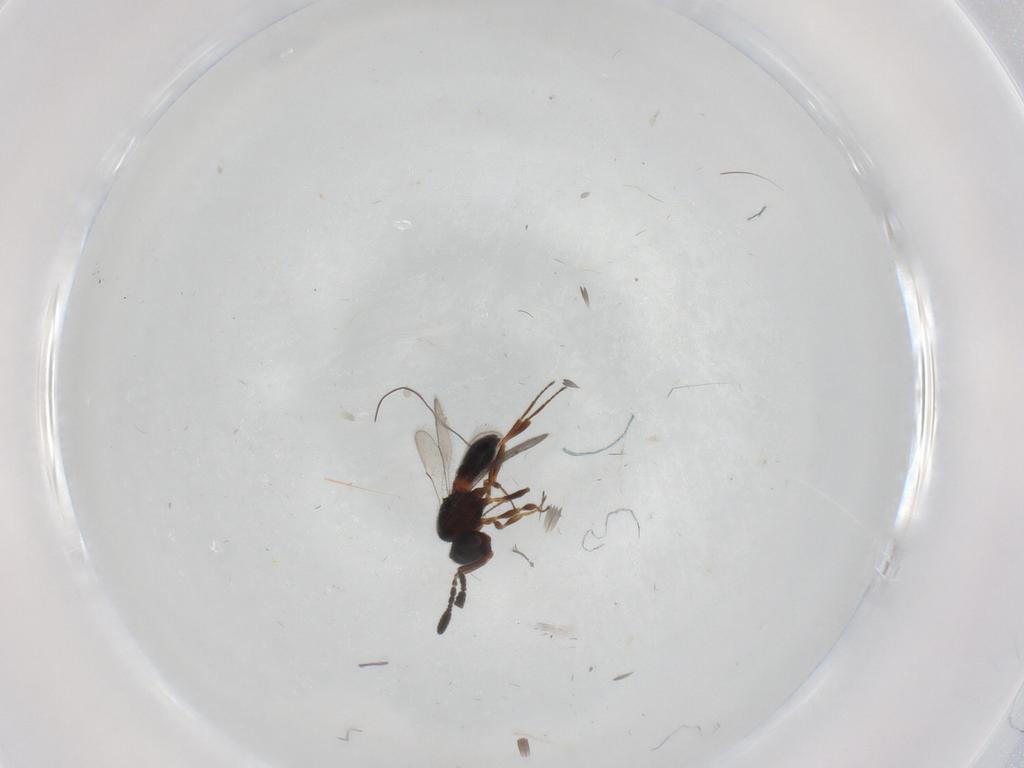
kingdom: Animalia
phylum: Arthropoda
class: Insecta
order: Hymenoptera
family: Scelionidae
